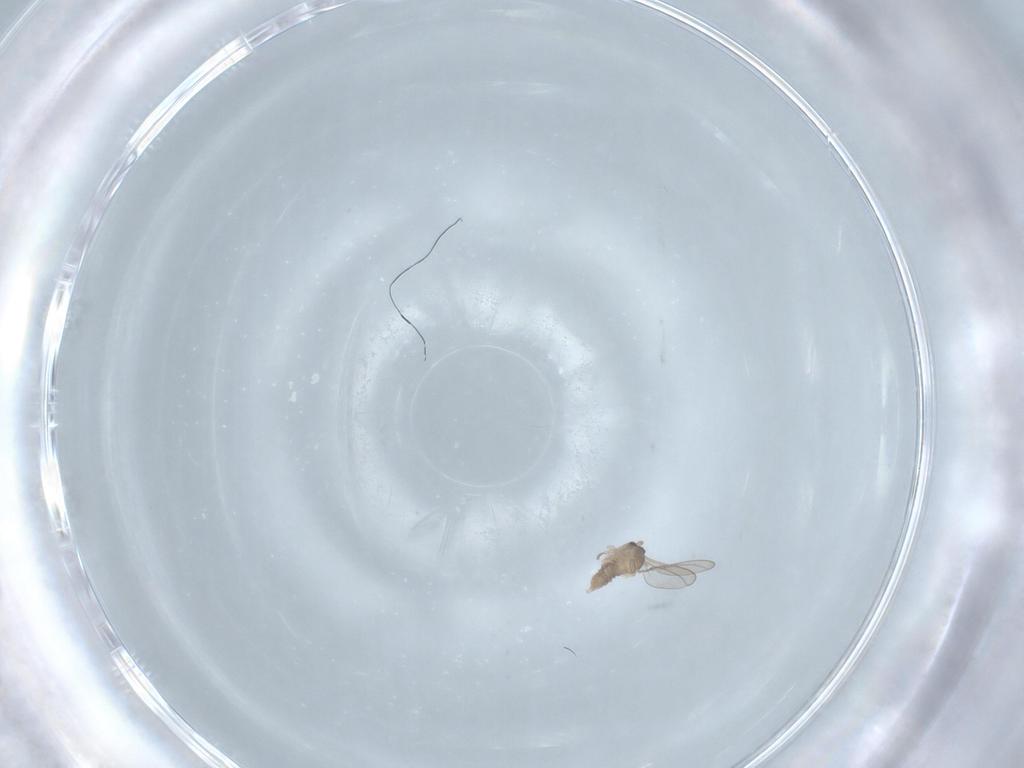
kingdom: Animalia
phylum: Arthropoda
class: Insecta
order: Diptera
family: Cecidomyiidae
